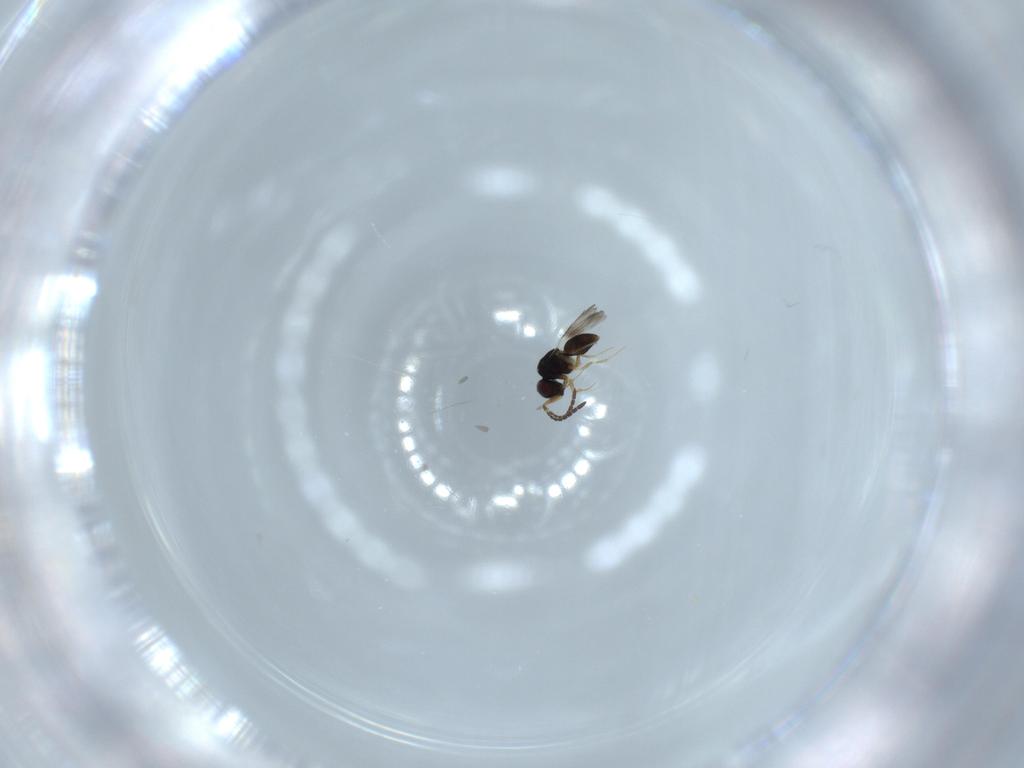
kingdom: Animalia
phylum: Arthropoda
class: Insecta
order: Hymenoptera
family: Ceraphronidae
